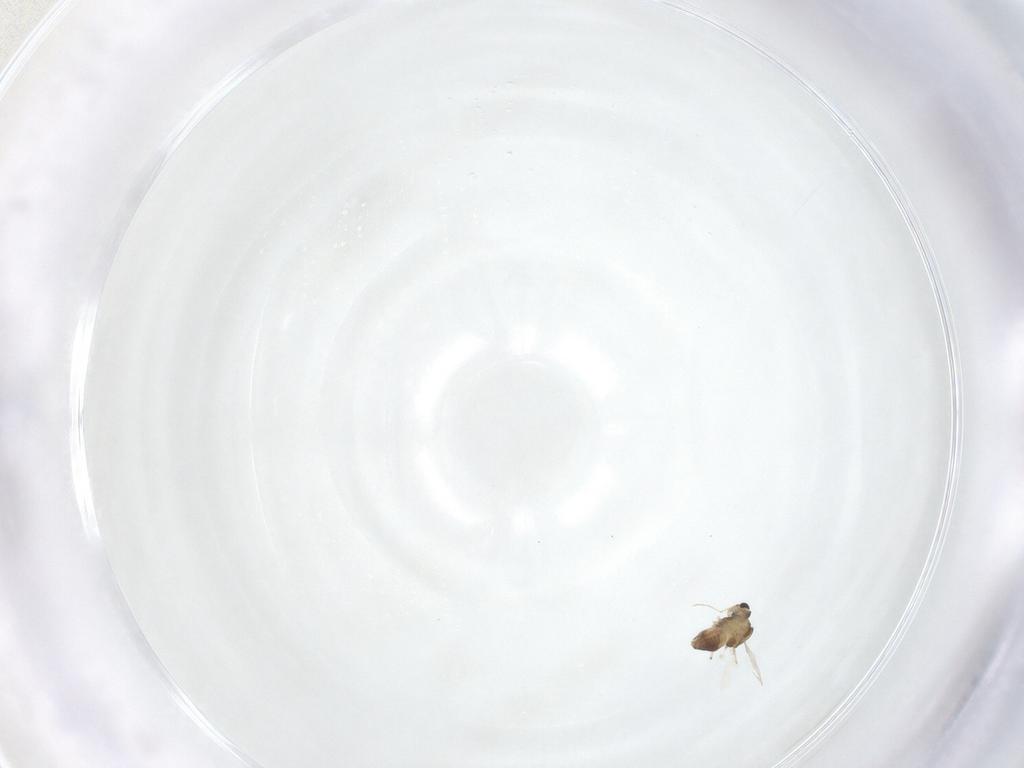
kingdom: Animalia
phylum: Arthropoda
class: Insecta
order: Diptera
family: Chironomidae
